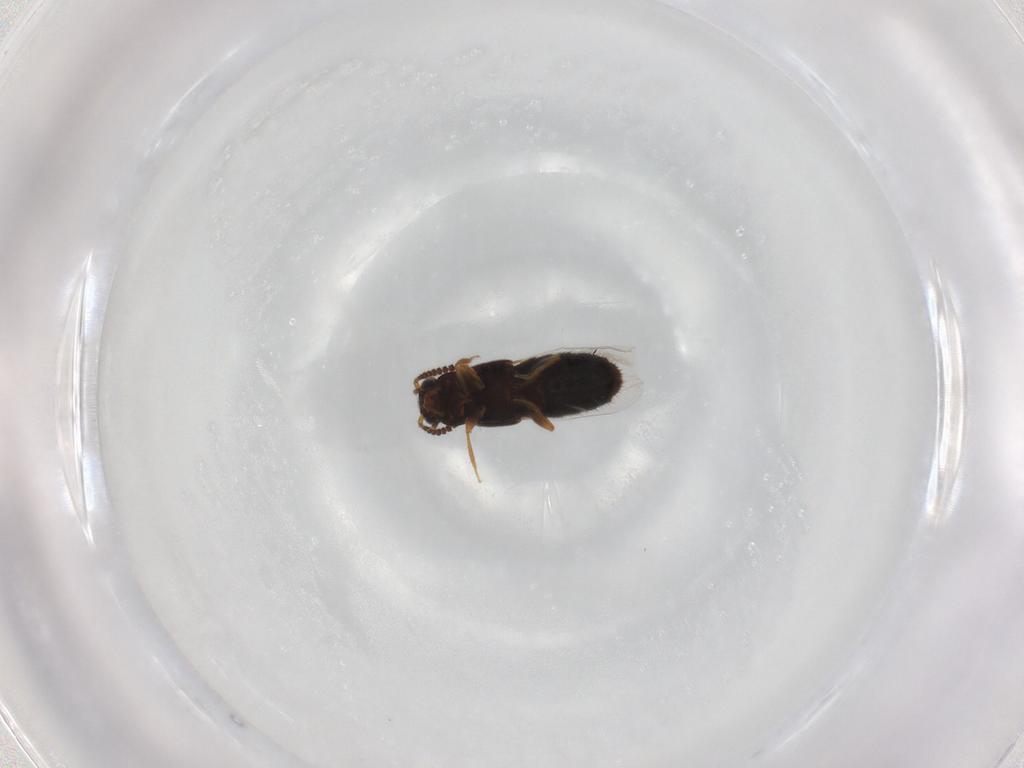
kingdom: Animalia
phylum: Arthropoda
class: Insecta
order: Coleoptera
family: Staphylinidae
